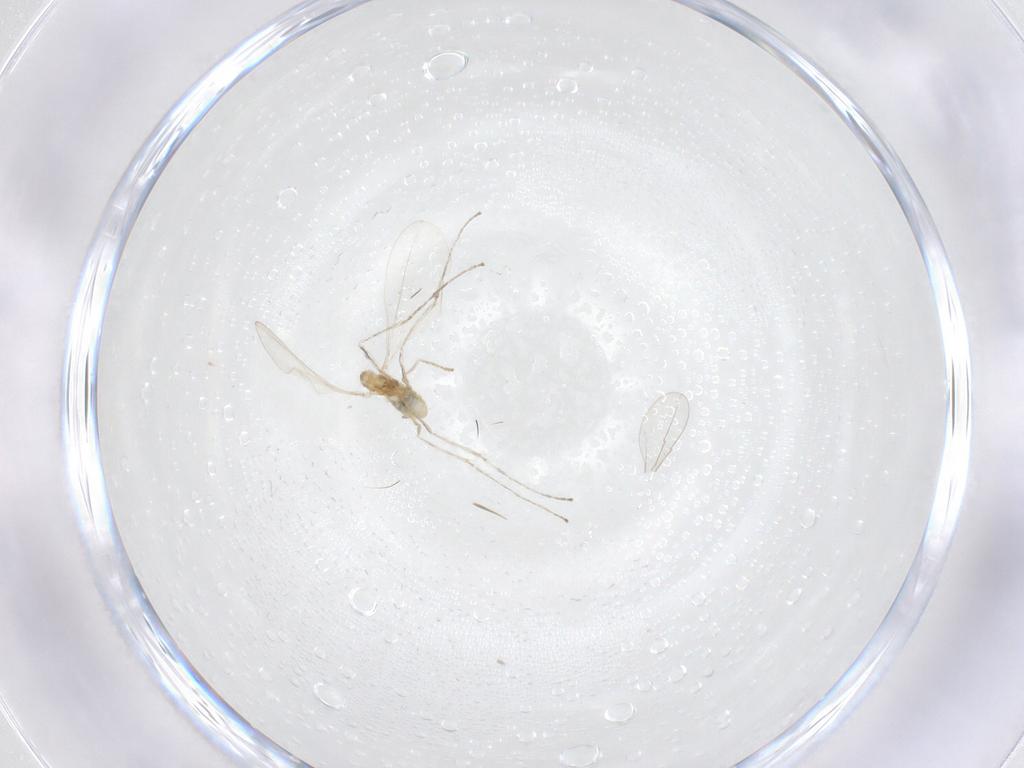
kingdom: Animalia
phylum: Arthropoda
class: Insecta
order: Diptera
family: Cecidomyiidae
